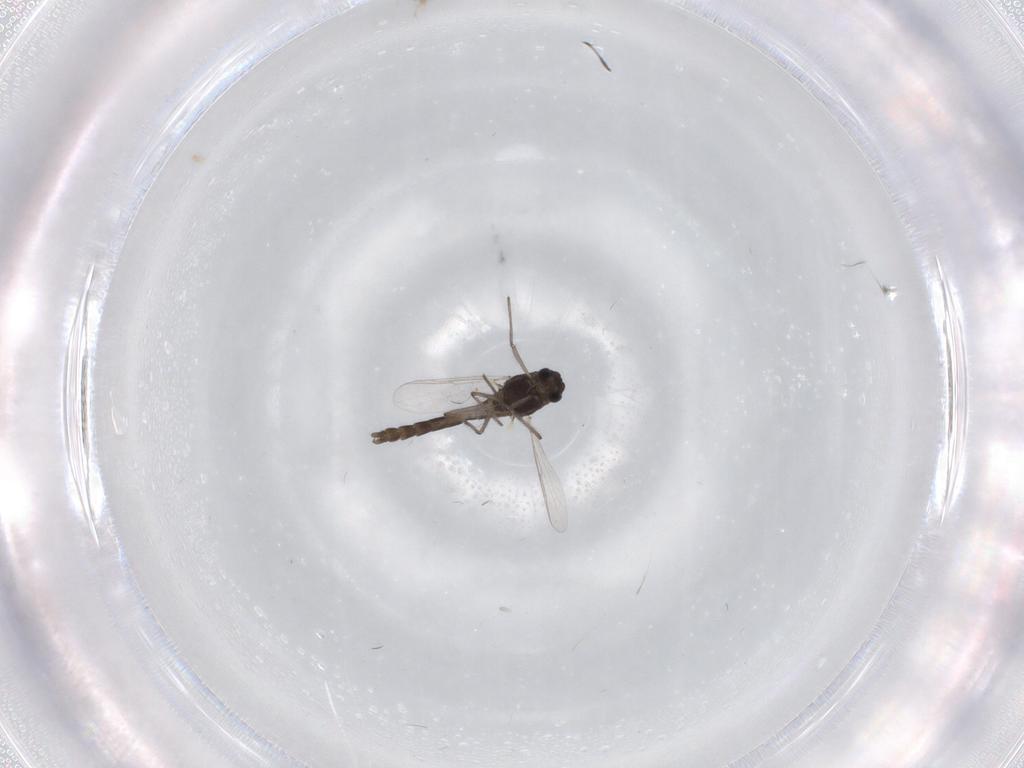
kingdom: Animalia
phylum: Arthropoda
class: Insecta
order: Diptera
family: Chironomidae
